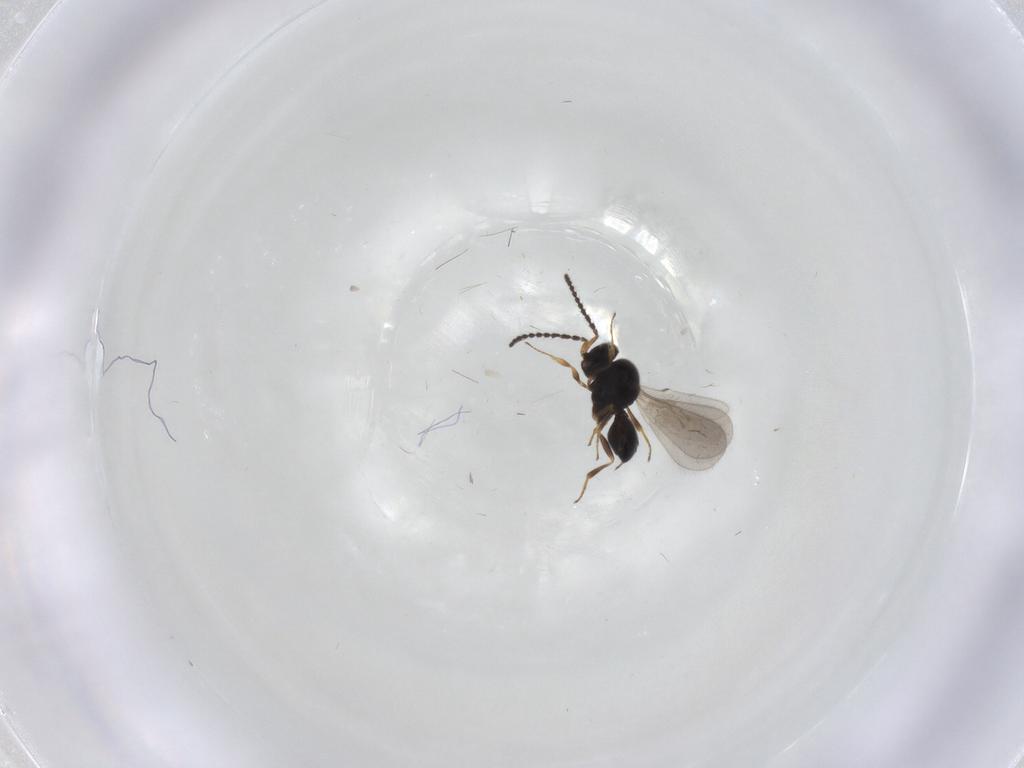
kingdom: Animalia
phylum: Arthropoda
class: Insecta
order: Hymenoptera
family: Scelionidae
